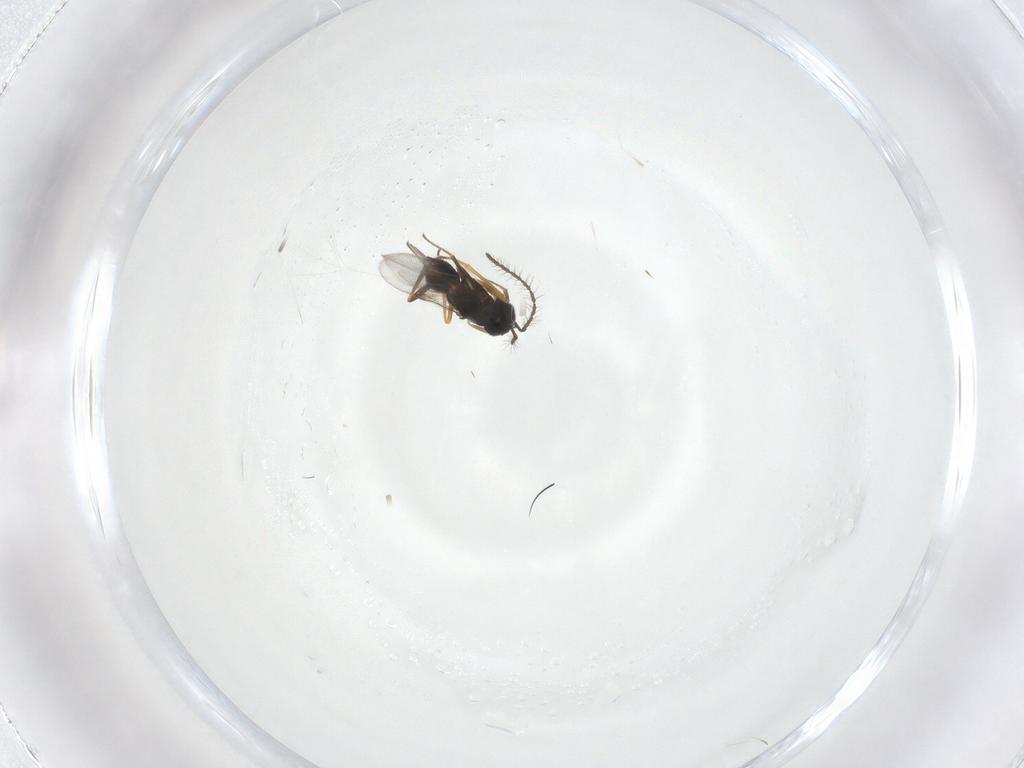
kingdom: Animalia
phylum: Arthropoda
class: Insecta
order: Hymenoptera
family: Encyrtidae
